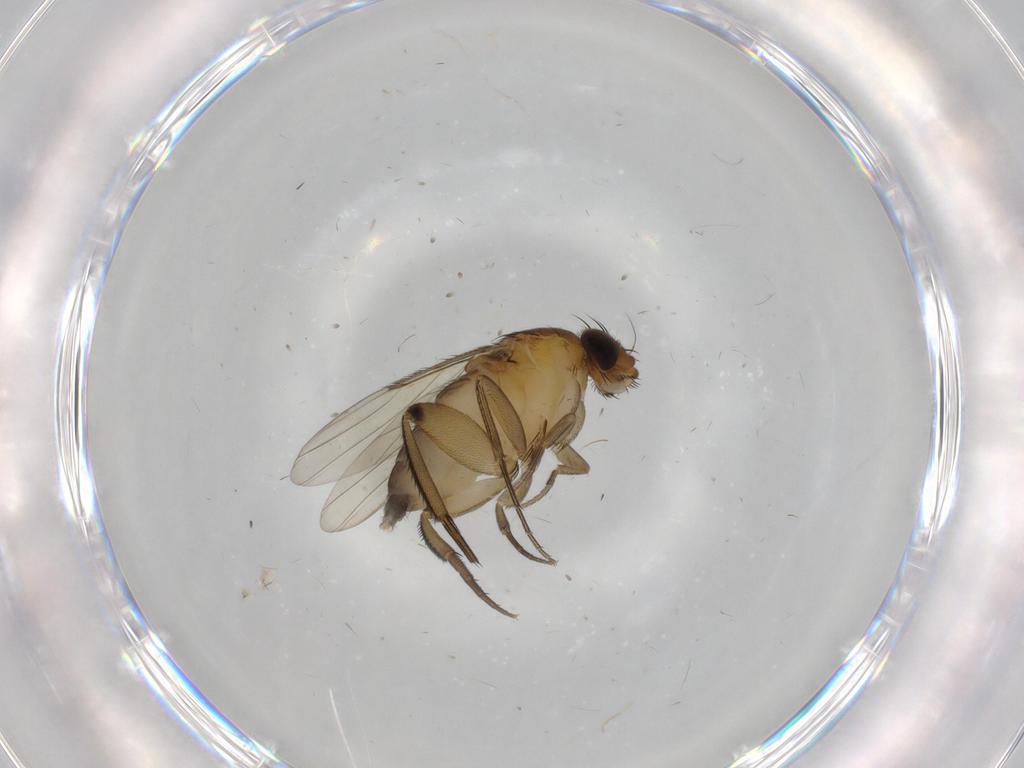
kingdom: Animalia
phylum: Arthropoda
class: Insecta
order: Diptera
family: Phoridae
